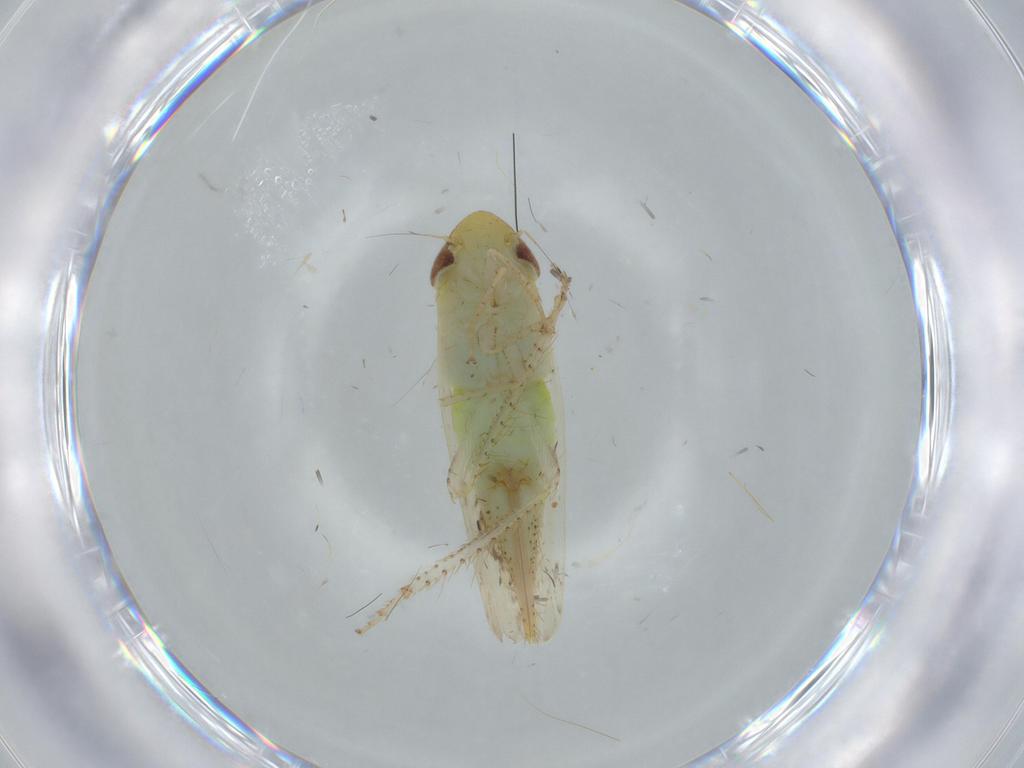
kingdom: Animalia
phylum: Arthropoda
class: Insecta
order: Hemiptera
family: Cicadellidae
